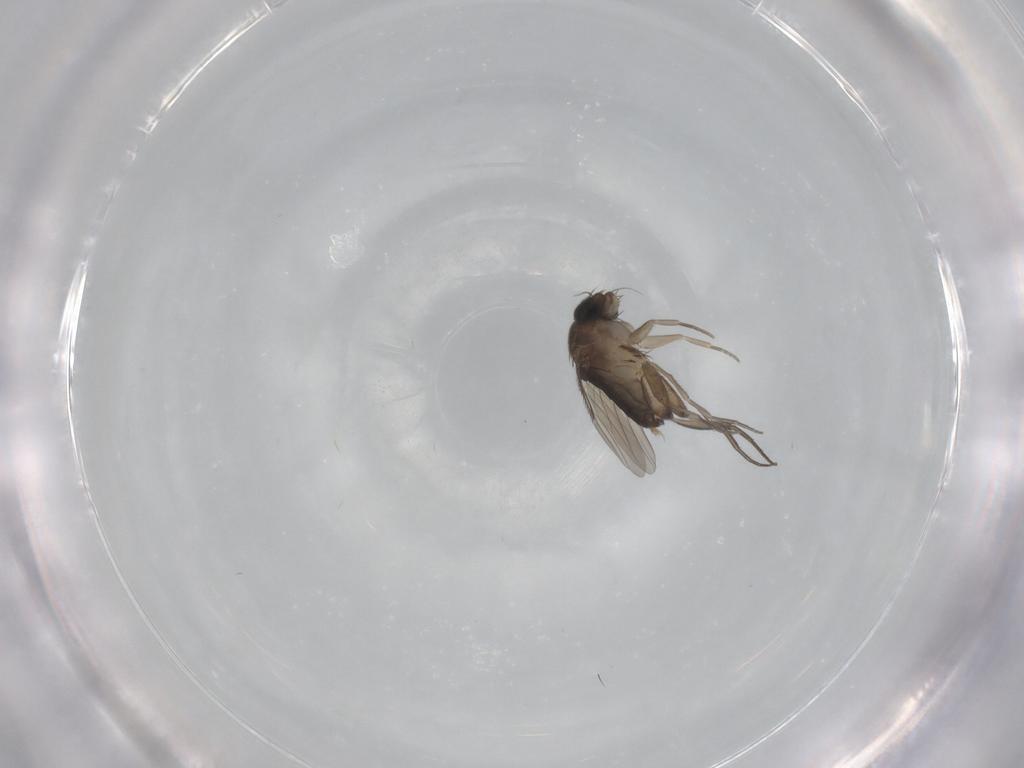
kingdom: Animalia
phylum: Arthropoda
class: Insecta
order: Diptera
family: Phoridae
